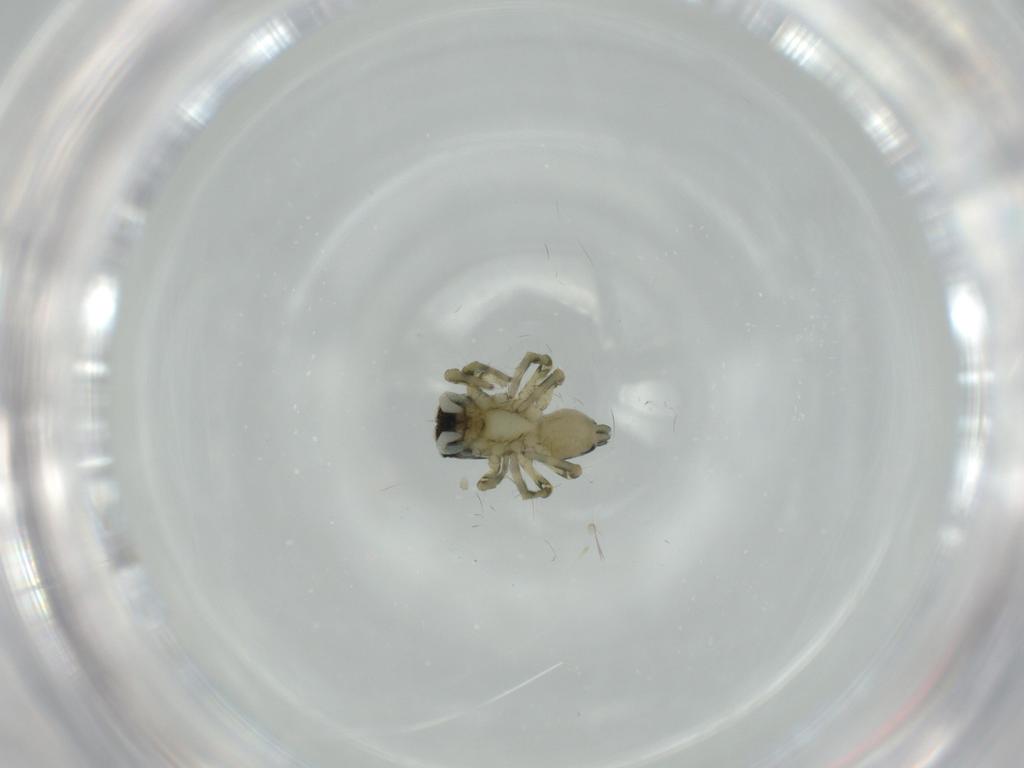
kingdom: Animalia
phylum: Arthropoda
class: Arachnida
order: Araneae
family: Salticidae
